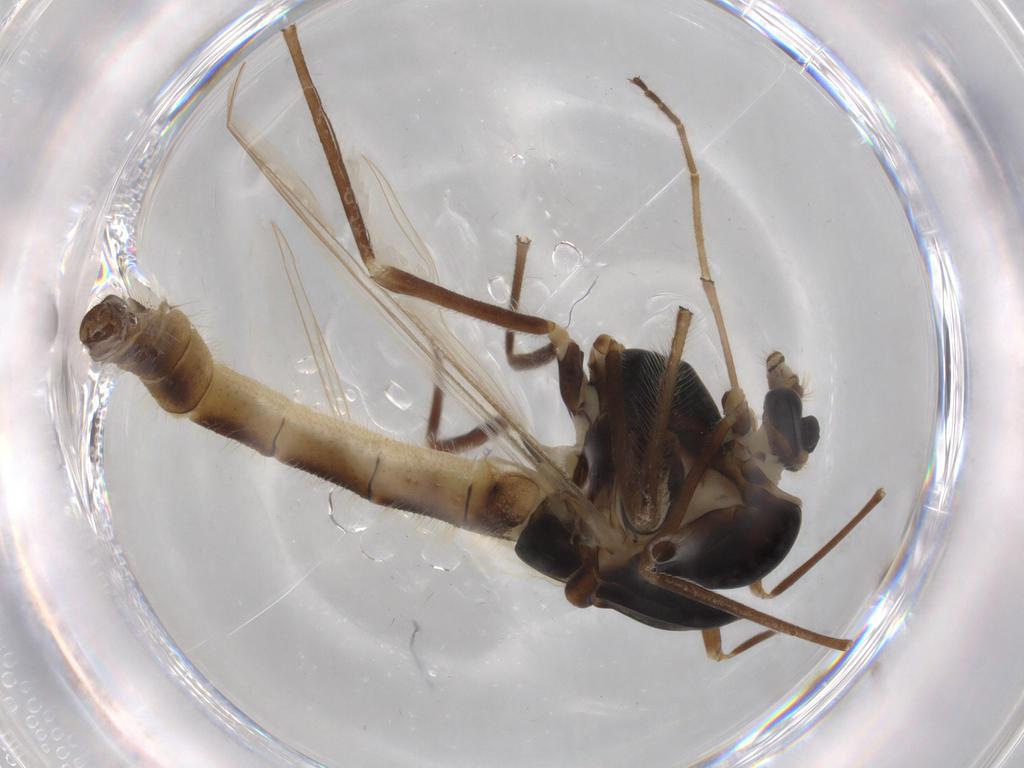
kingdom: Animalia
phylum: Arthropoda
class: Insecta
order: Diptera
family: Chironomidae
